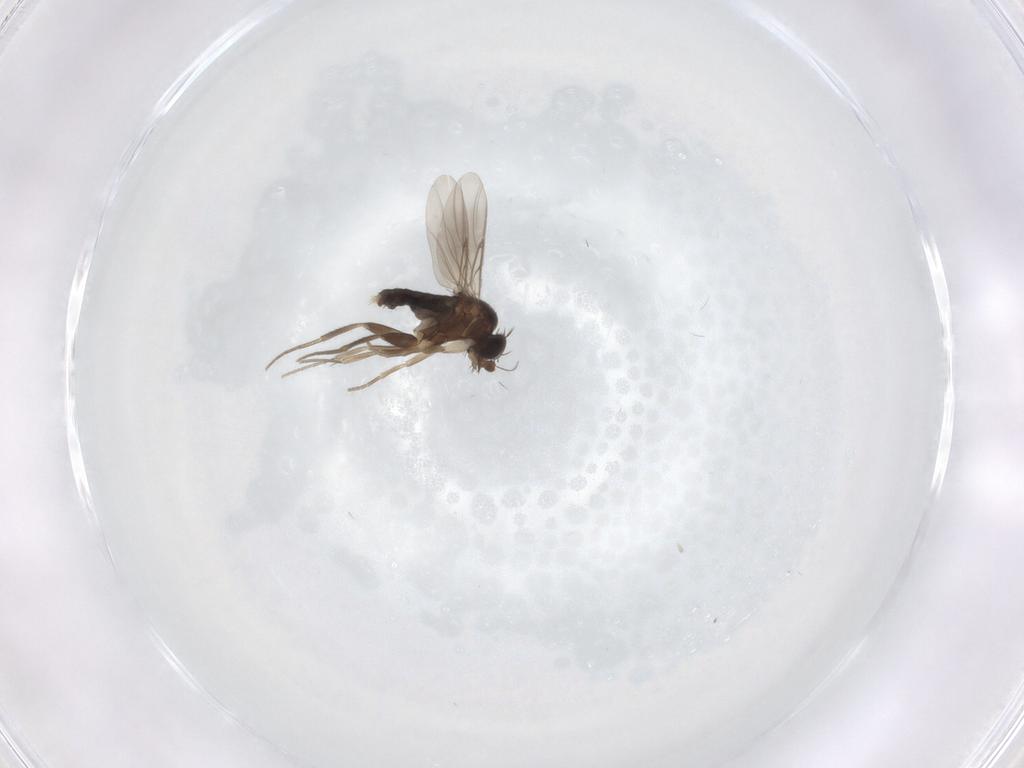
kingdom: Animalia
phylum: Arthropoda
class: Insecta
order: Diptera
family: Phoridae
